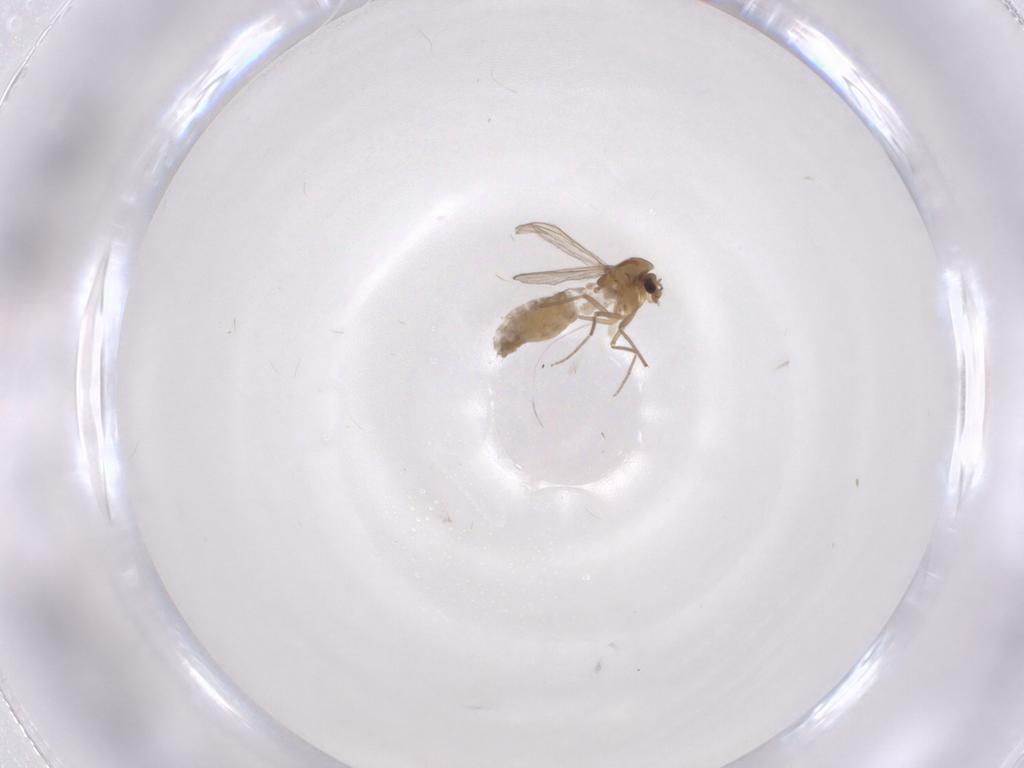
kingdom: Animalia
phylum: Arthropoda
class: Insecta
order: Diptera
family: Chironomidae
